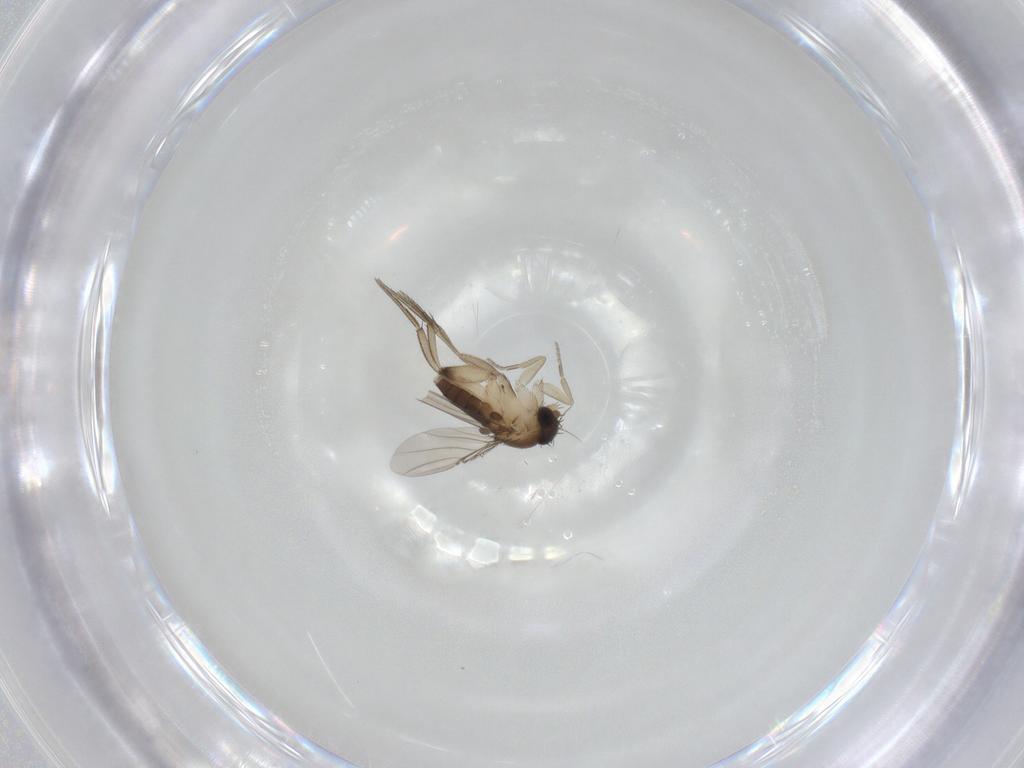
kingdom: Animalia
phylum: Arthropoda
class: Insecta
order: Diptera
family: Phoridae
